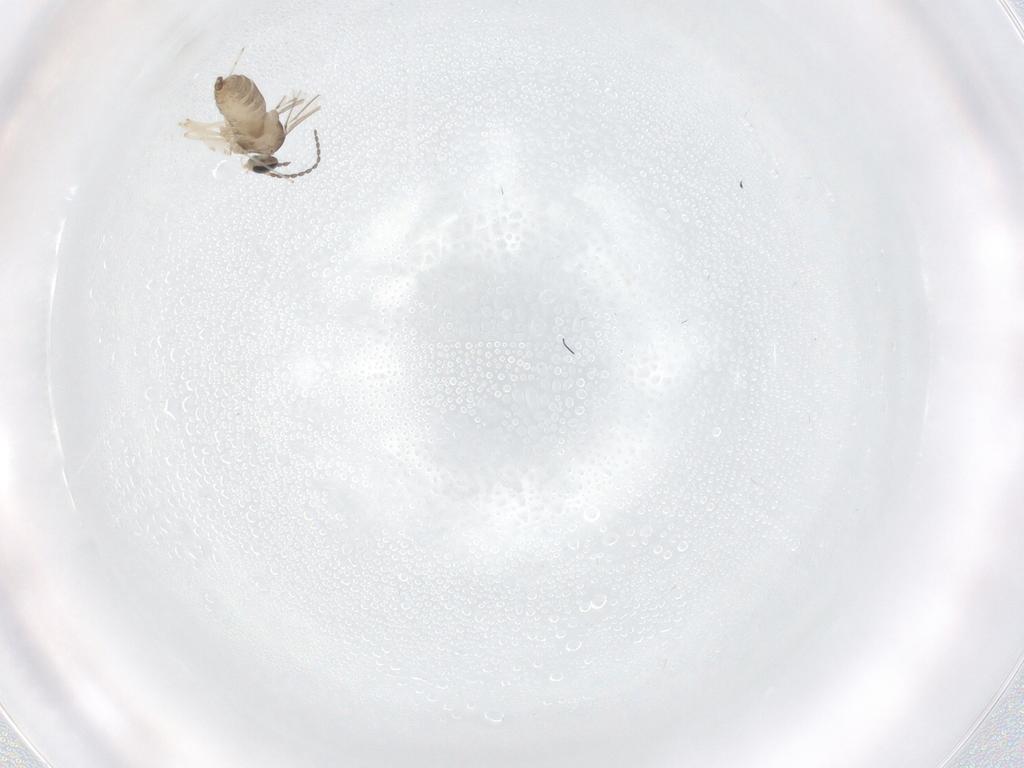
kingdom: Animalia
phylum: Arthropoda
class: Insecta
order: Diptera
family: Cecidomyiidae
